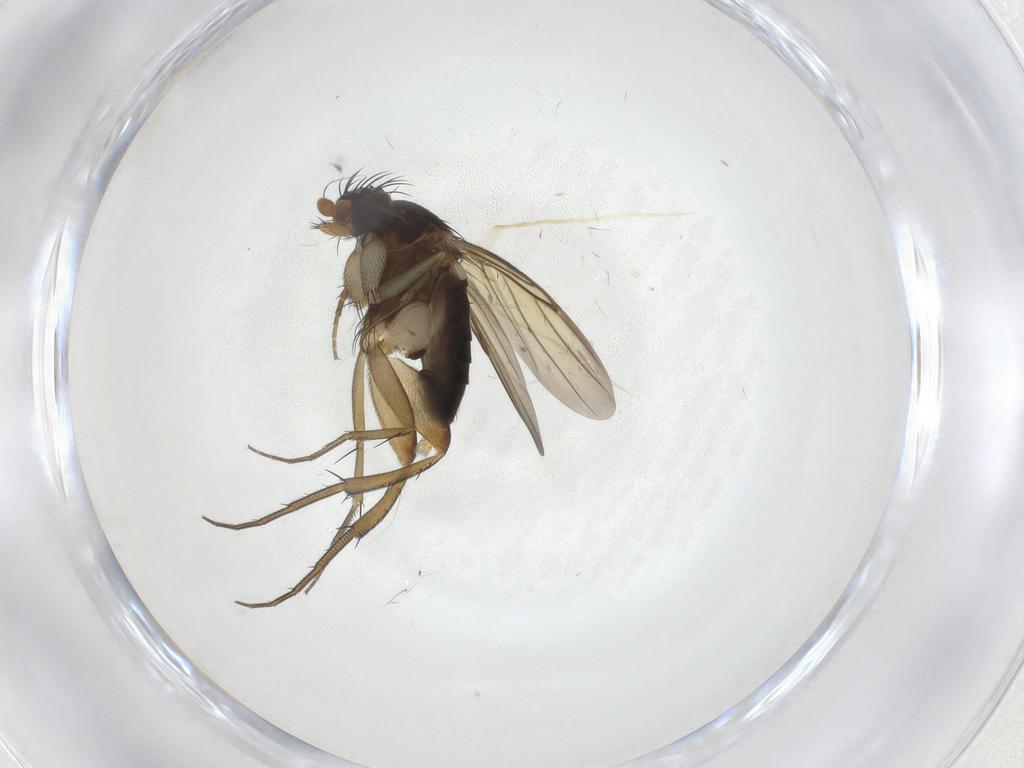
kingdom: Animalia
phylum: Arthropoda
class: Insecta
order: Diptera
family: Phoridae
